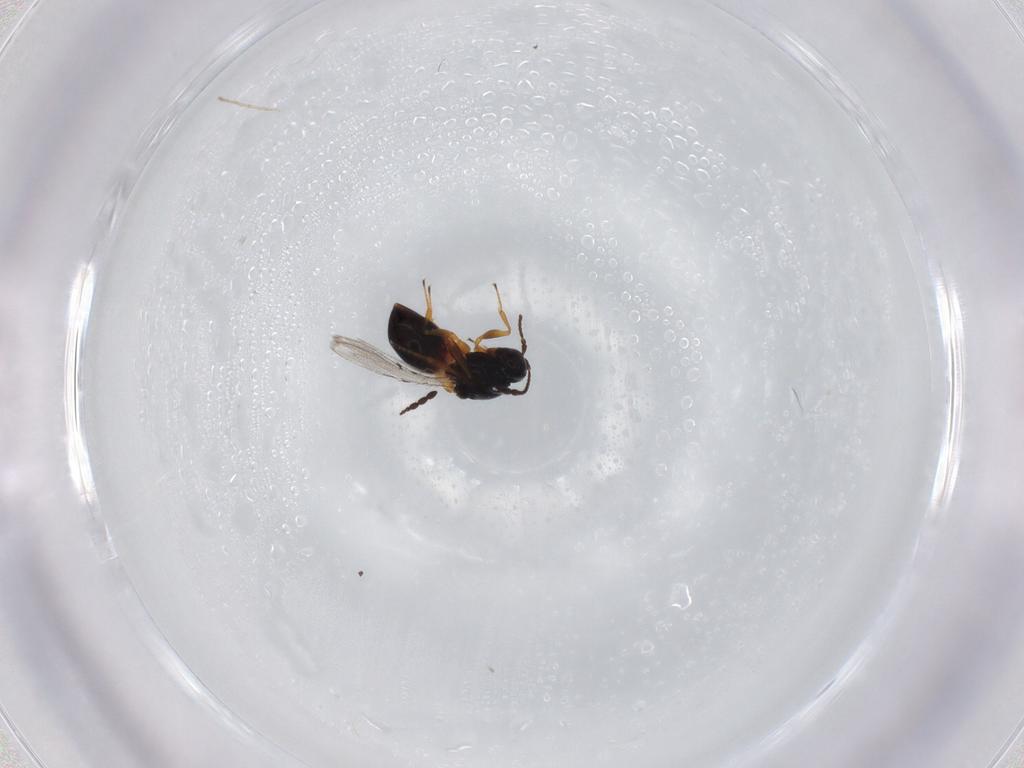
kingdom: Animalia
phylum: Arthropoda
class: Insecta
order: Hymenoptera
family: Figitidae
